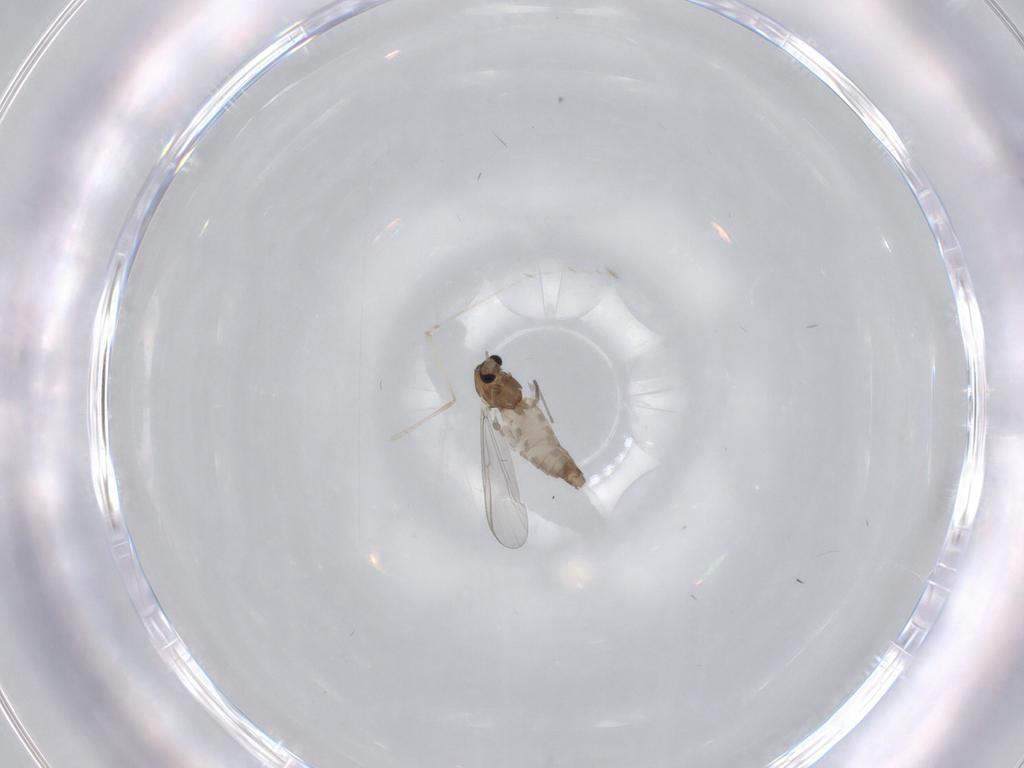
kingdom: Animalia
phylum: Arthropoda
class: Insecta
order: Diptera
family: Chironomidae
